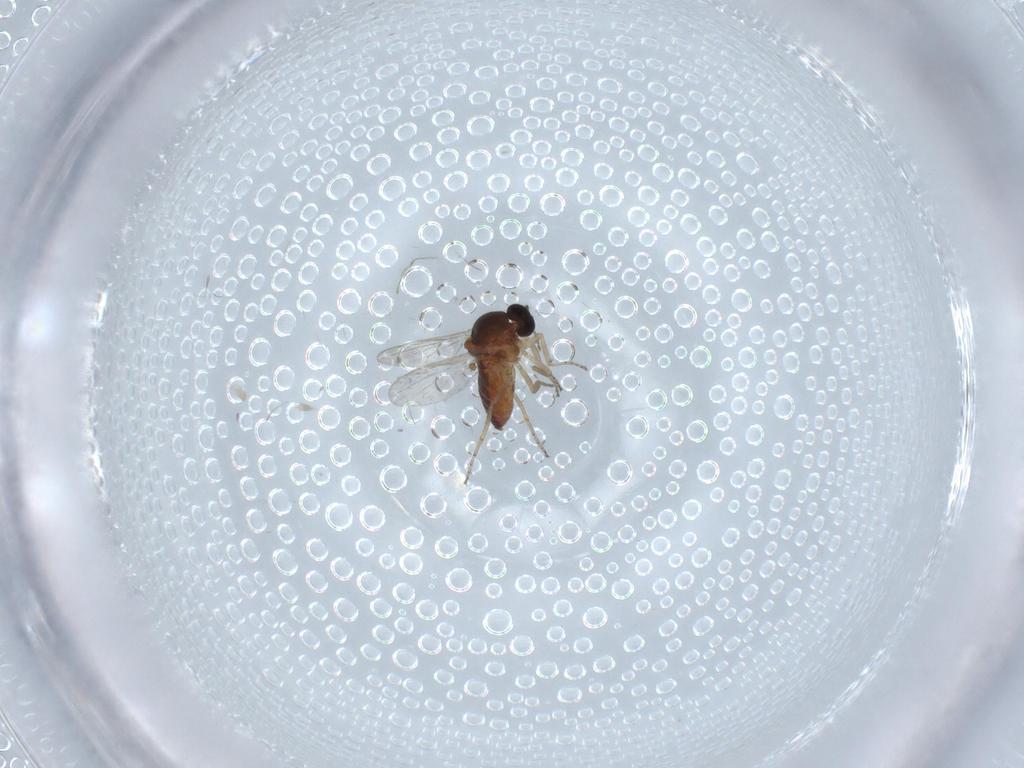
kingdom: Animalia
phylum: Arthropoda
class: Insecta
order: Diptera
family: Ceratopogonidae
